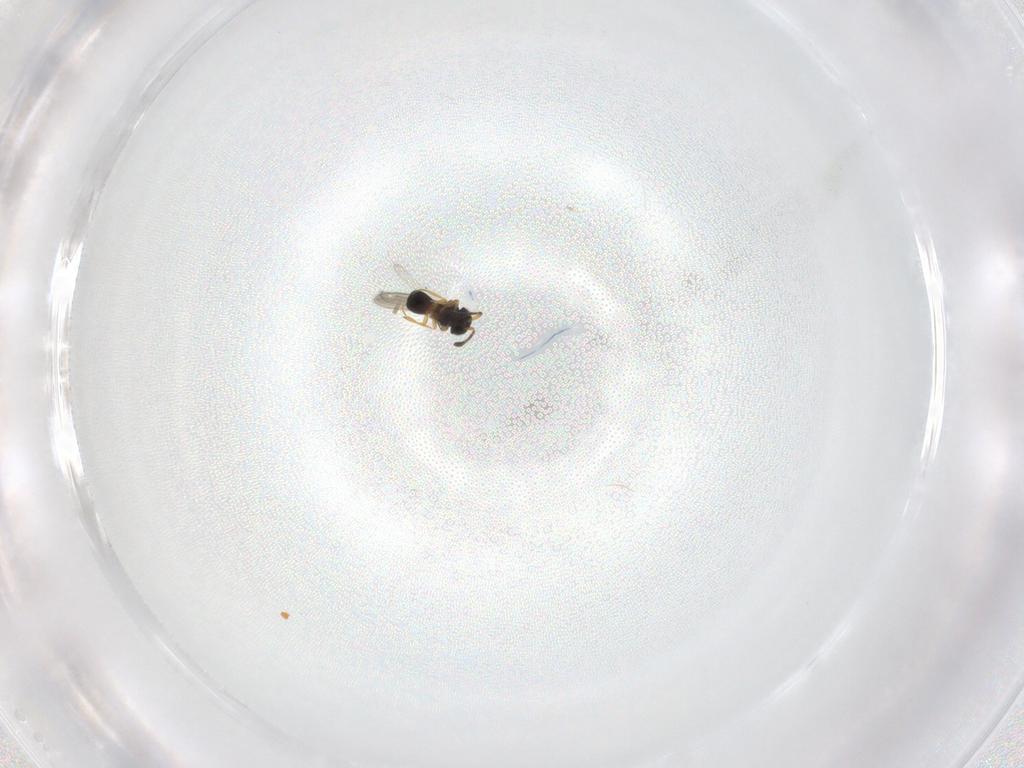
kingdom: Animalia
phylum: Arthropoda
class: Insecta
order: Hymenoptera
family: Scelionidae
